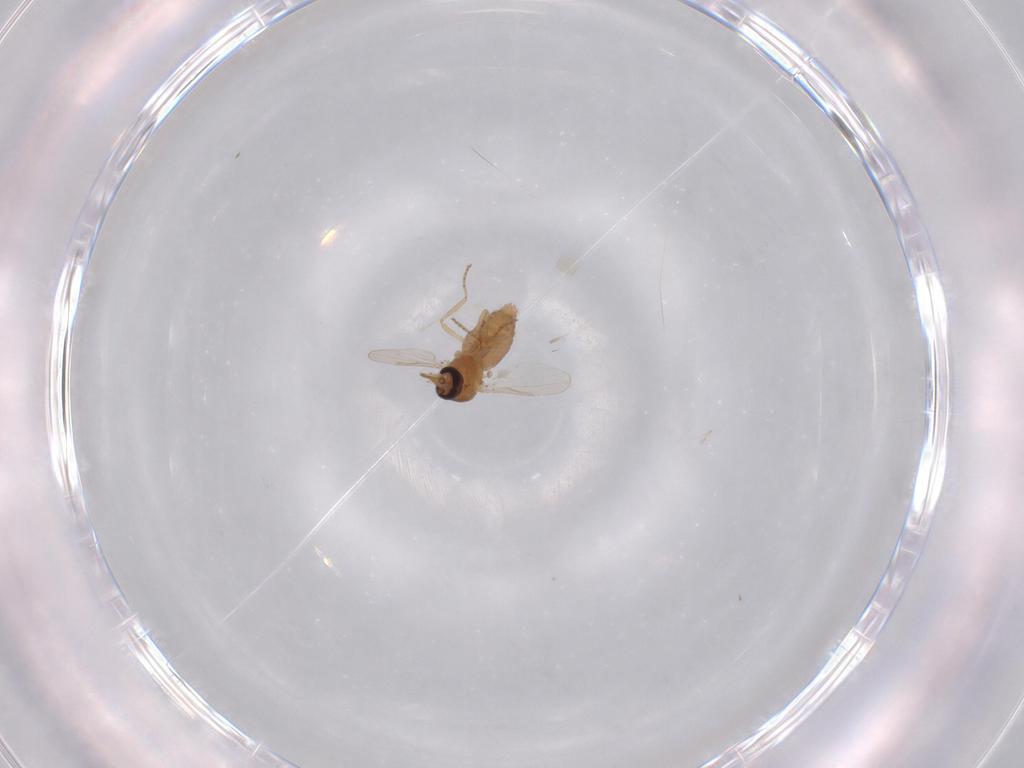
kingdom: Animalia
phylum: Arthropoda
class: Insecta
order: Diptera
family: Ceratopogonidae
